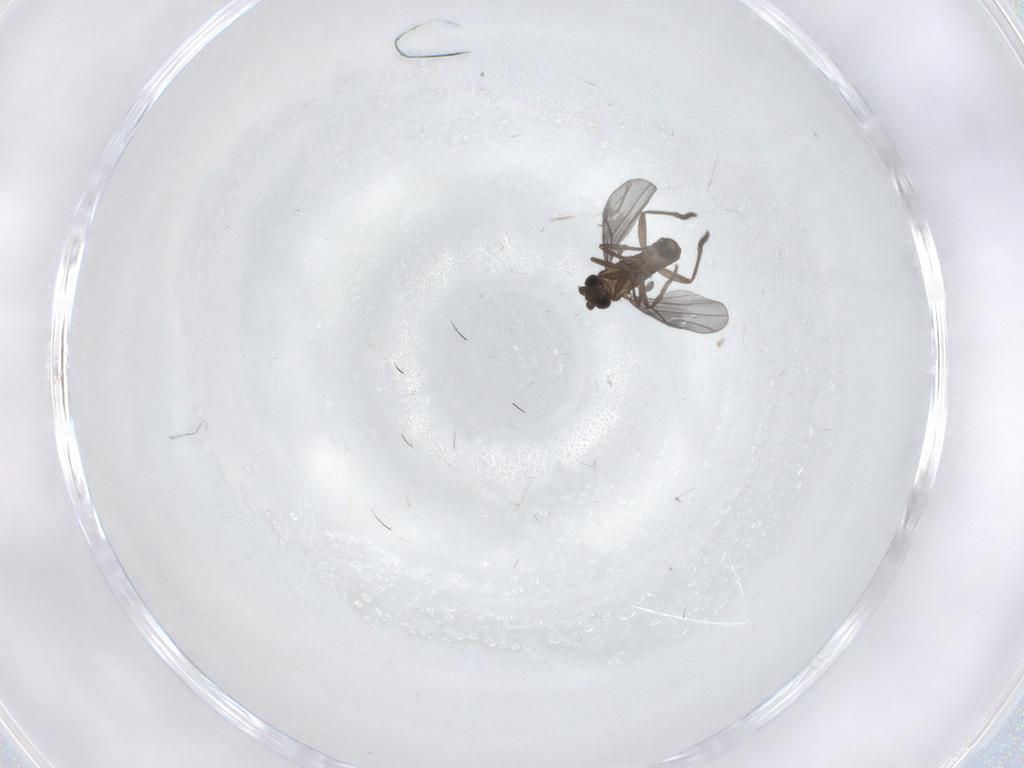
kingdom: Animalia
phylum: Arthropoda
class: Insecta
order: Diptera
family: Phoridae
